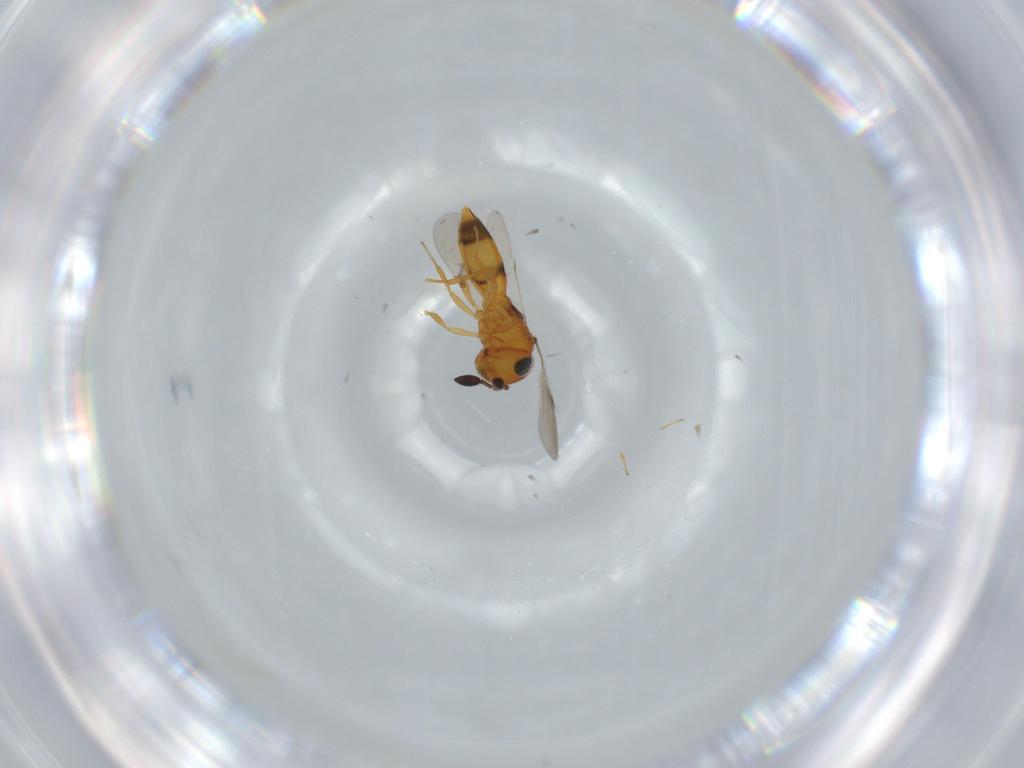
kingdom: Animalia
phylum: Arthropoda
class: Insecta
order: Hymenoptera
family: Scelionidae
